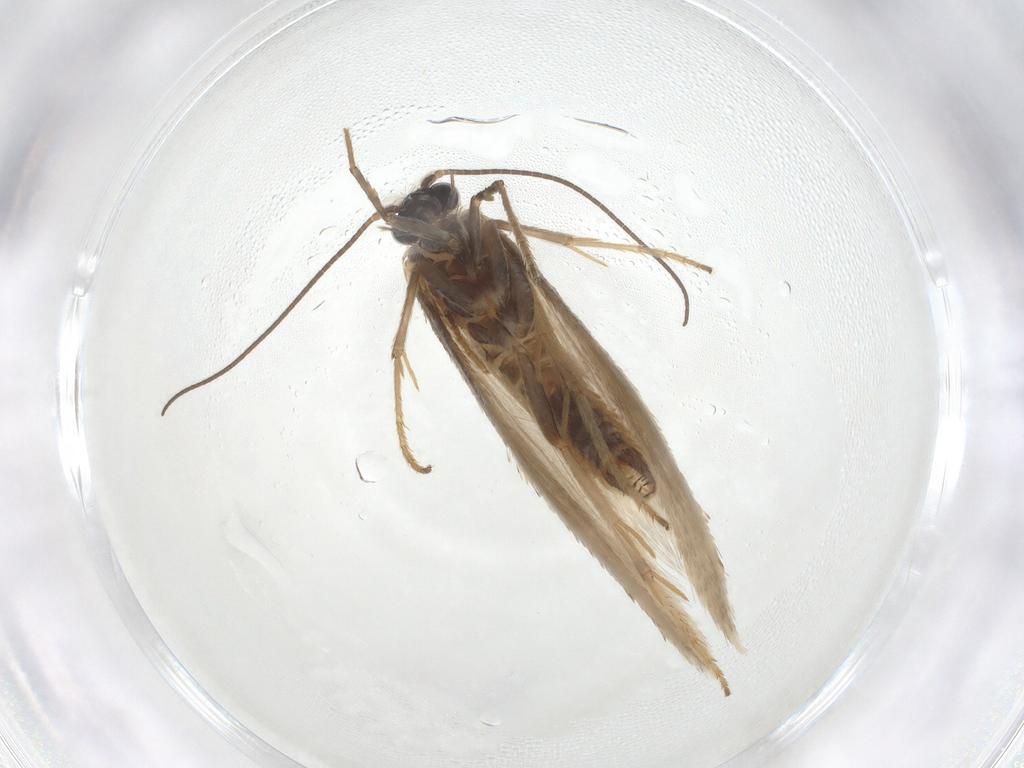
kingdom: Animalia
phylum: Arthropoda
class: Insecta
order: Lepidoptera
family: Tridentaformidae
